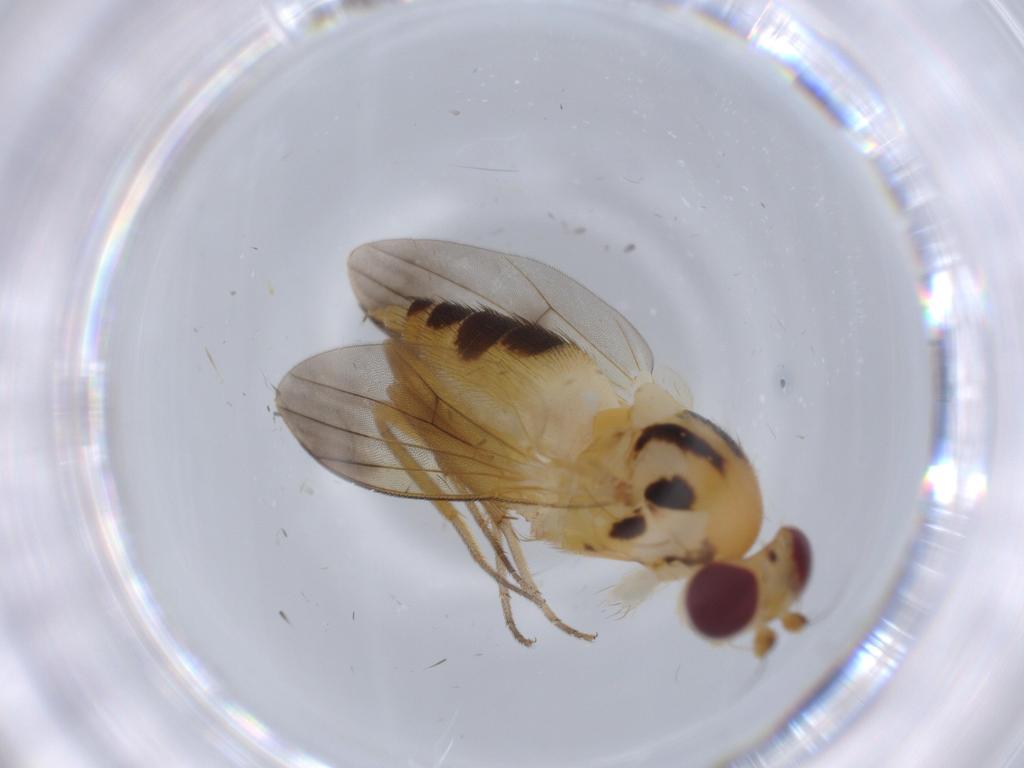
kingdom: Animalia
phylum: Arthropoda
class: Insecta
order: Diptera
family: Clusiidae
